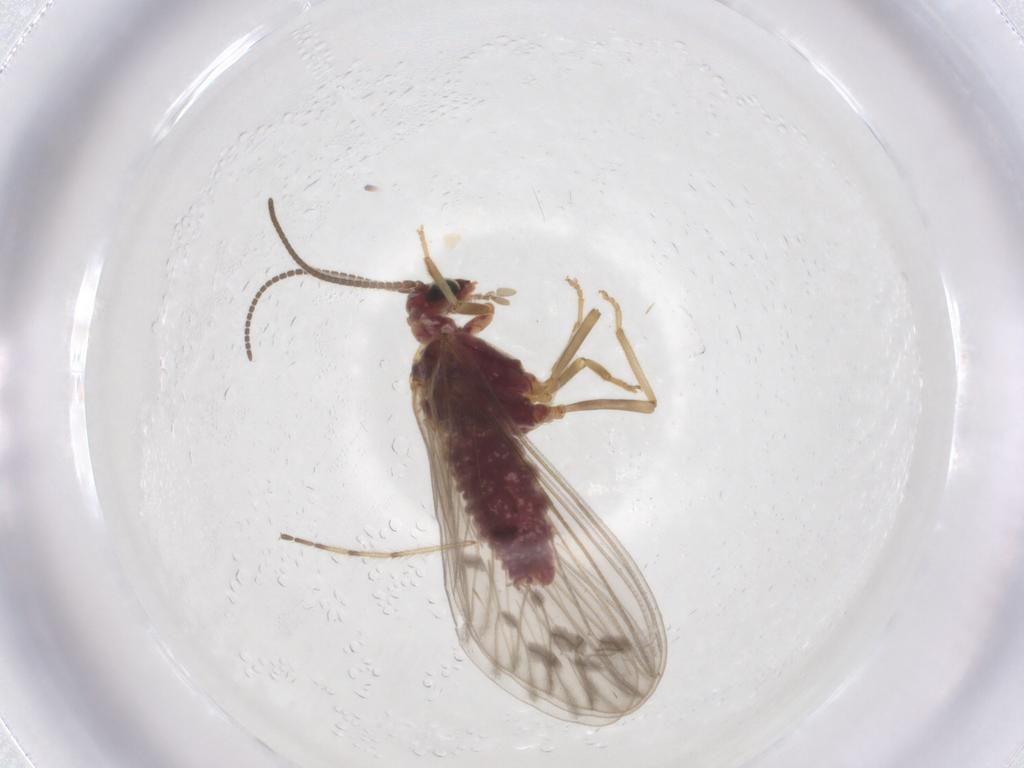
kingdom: Animalia
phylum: Arthropoda
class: Insecta
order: Neuroptera
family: Coniopterygidae
